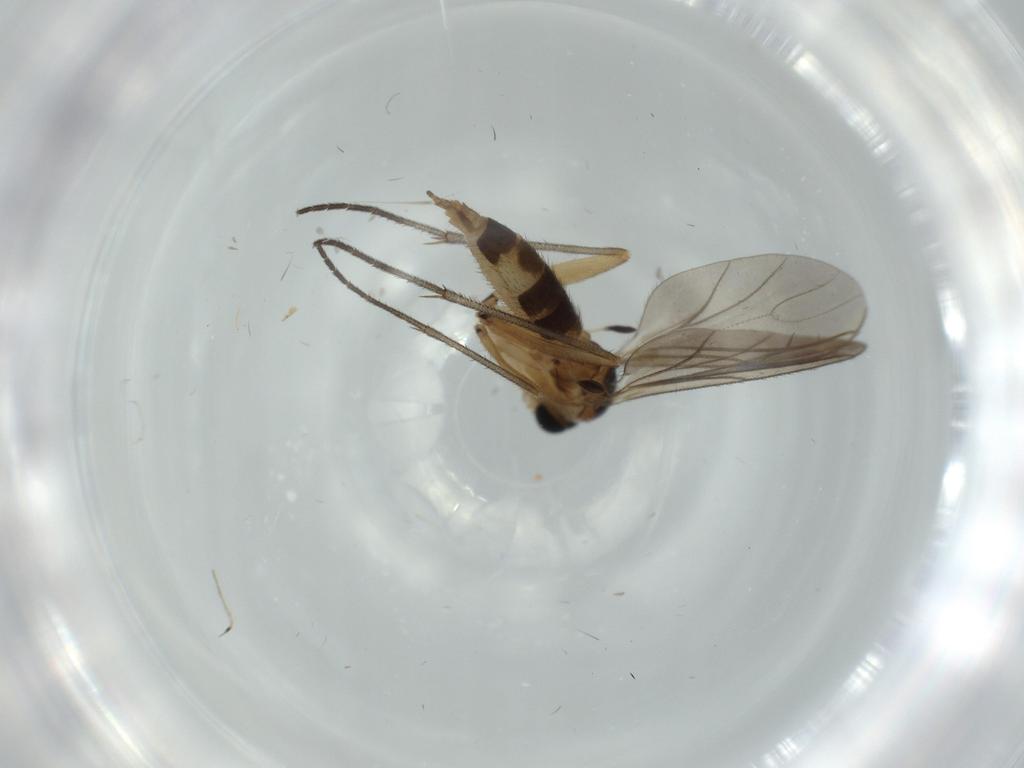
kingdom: Animalia
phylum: Arthropoda
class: Insecta
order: Diptera
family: Sciaridae
